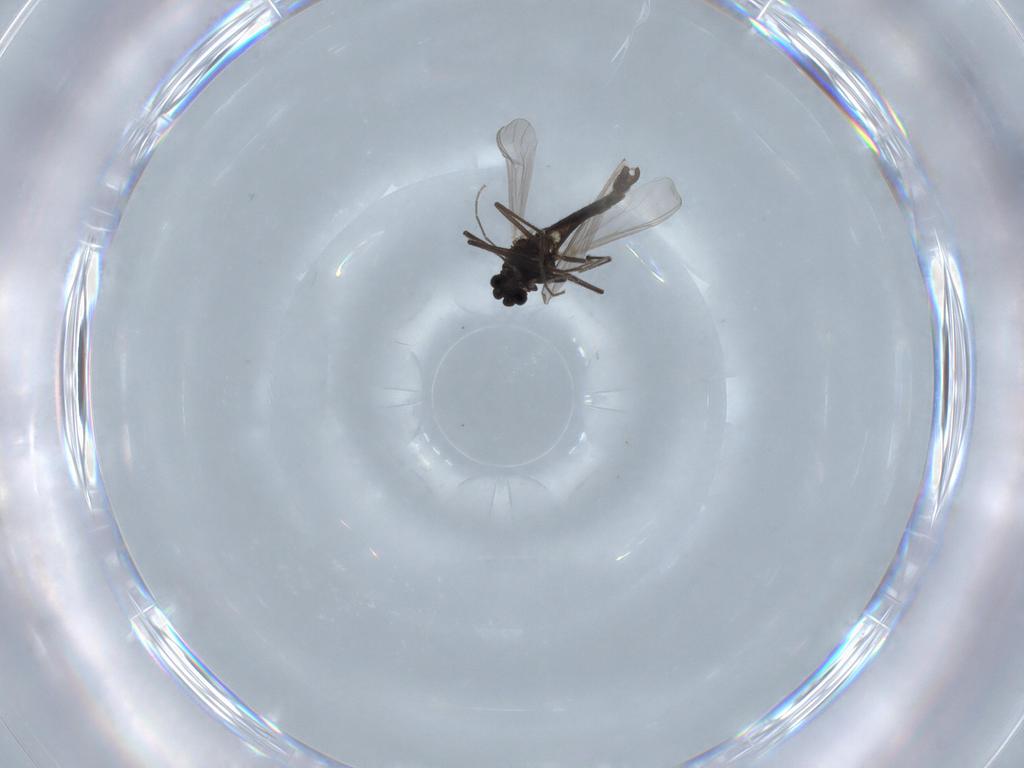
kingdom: Animalia
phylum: Arthropoda
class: Insecta
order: Diptera
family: Chironomidae
